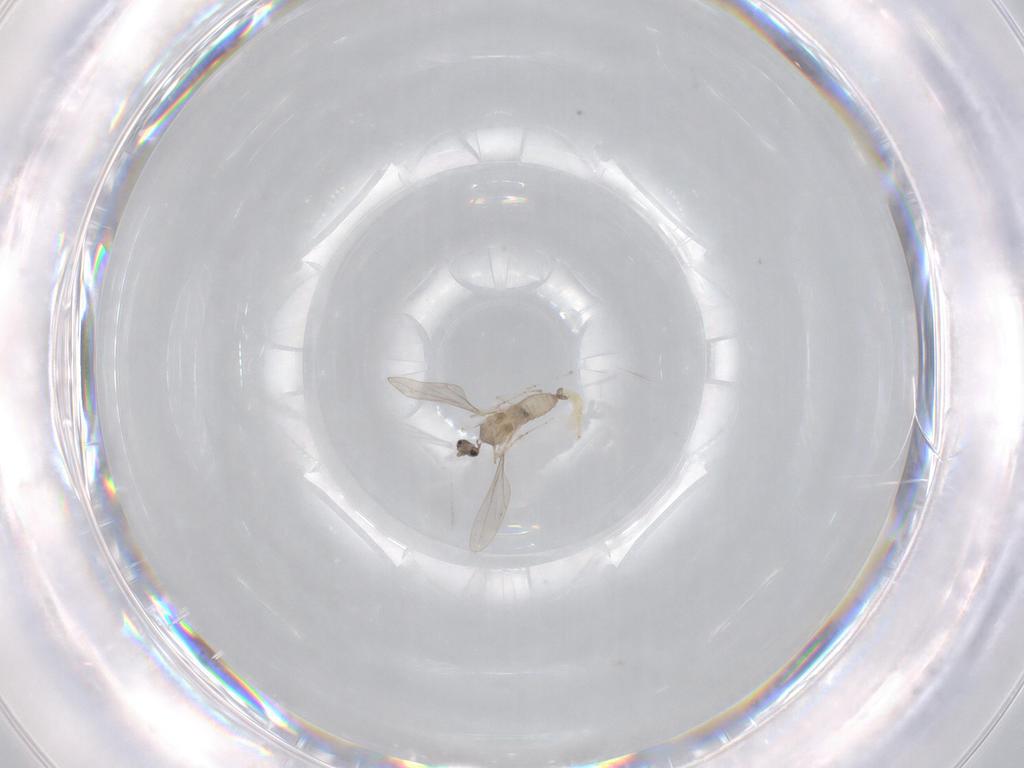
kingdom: Animalia
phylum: Arthropoda
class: Insecta
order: Diptera
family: Cecidomyiidae
